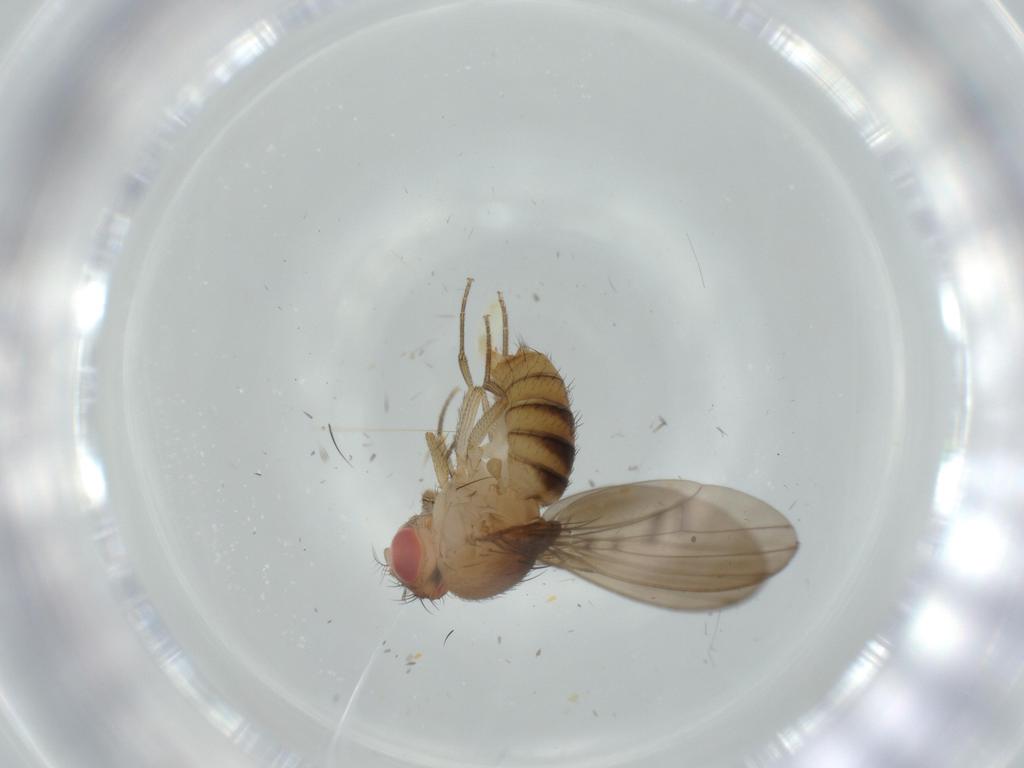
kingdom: Animalia
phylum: Arthropoda
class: Insecta
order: Diptera
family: Drosophilidae
